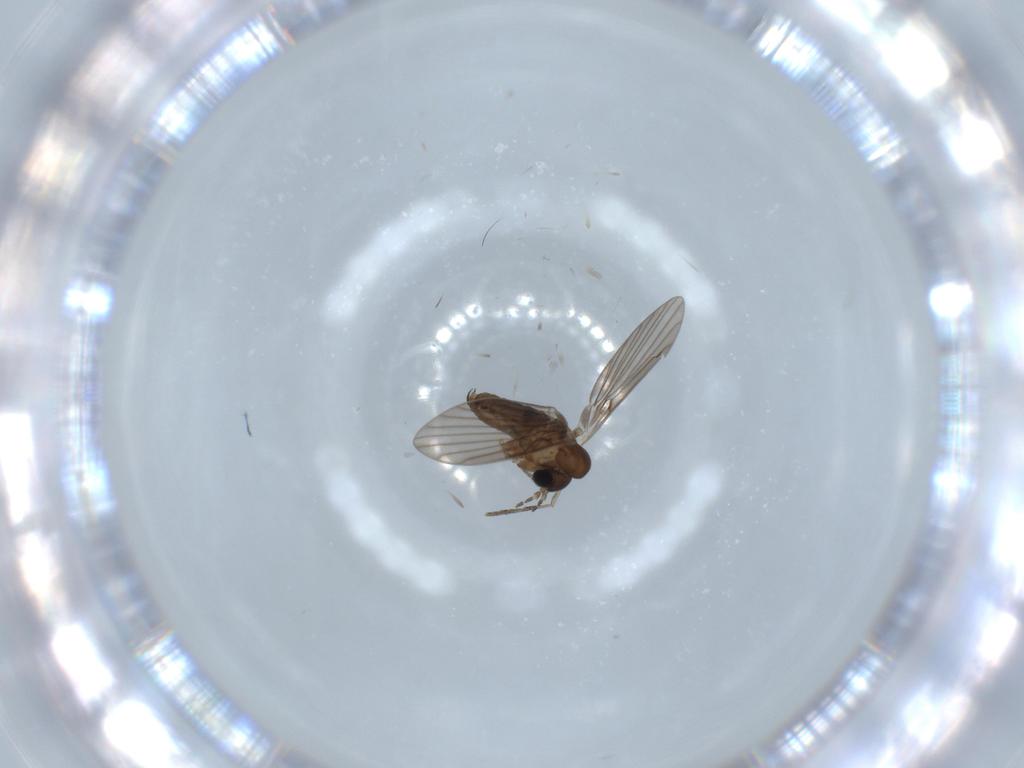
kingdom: Animalia
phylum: Arthropoda
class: Insecta
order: Diptera
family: Psychodidae
